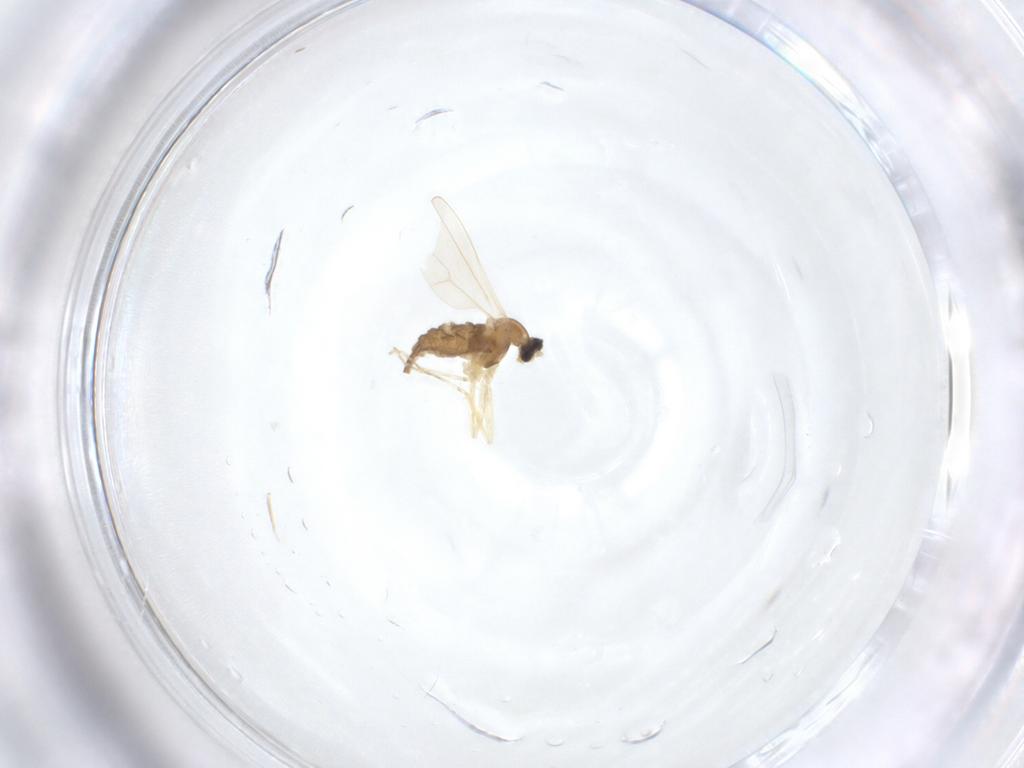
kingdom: Animalia
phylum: Arthropoda
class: Insecta
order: Diptera
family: Cecidomyiidae
